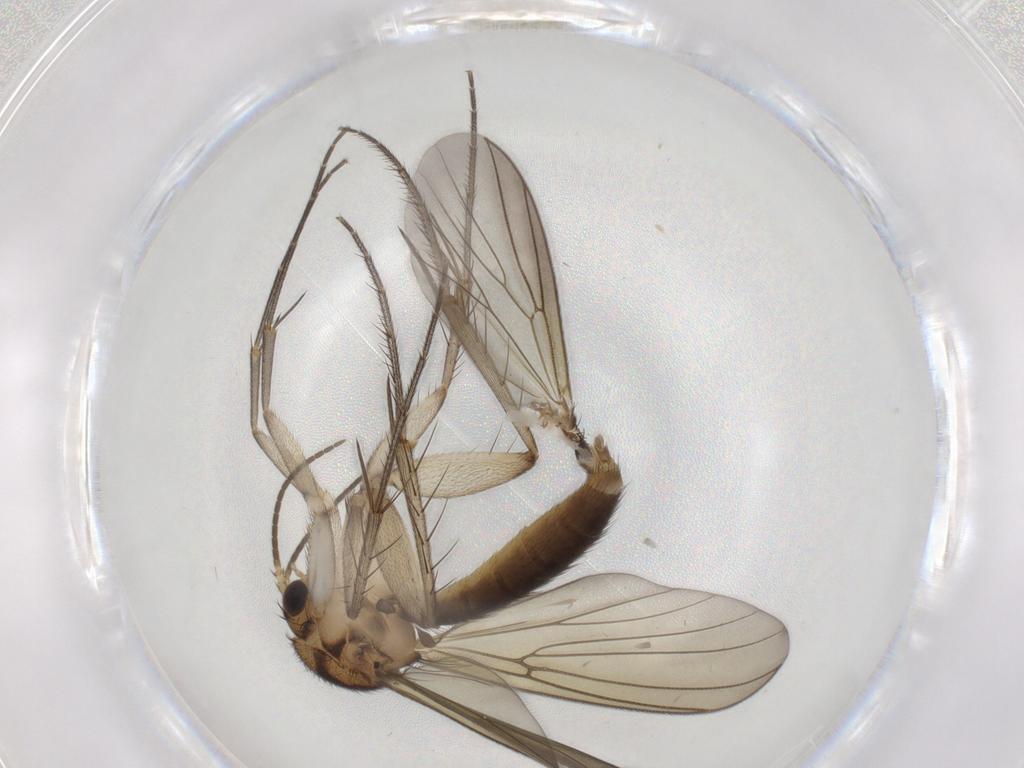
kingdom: Animalia
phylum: Arthropoda
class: Insecta
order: Diptera
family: Mycetophilidae
